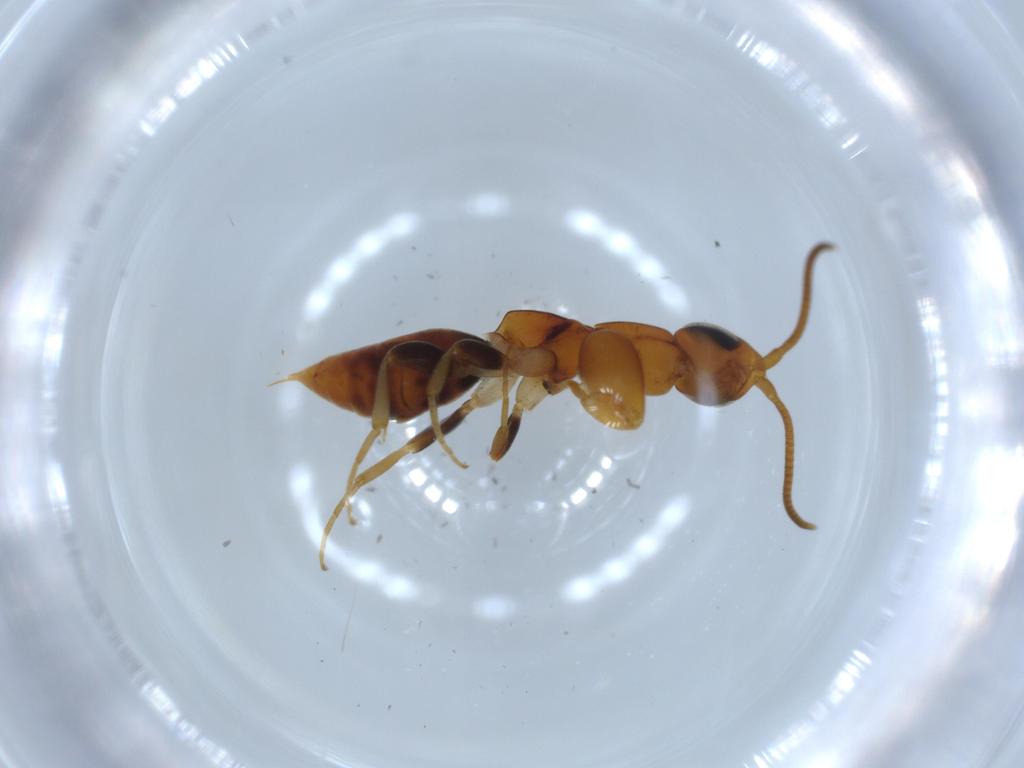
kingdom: Animalia
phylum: Arthropoda
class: Insecta
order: Hymenoptera
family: Sclerogibbidae
